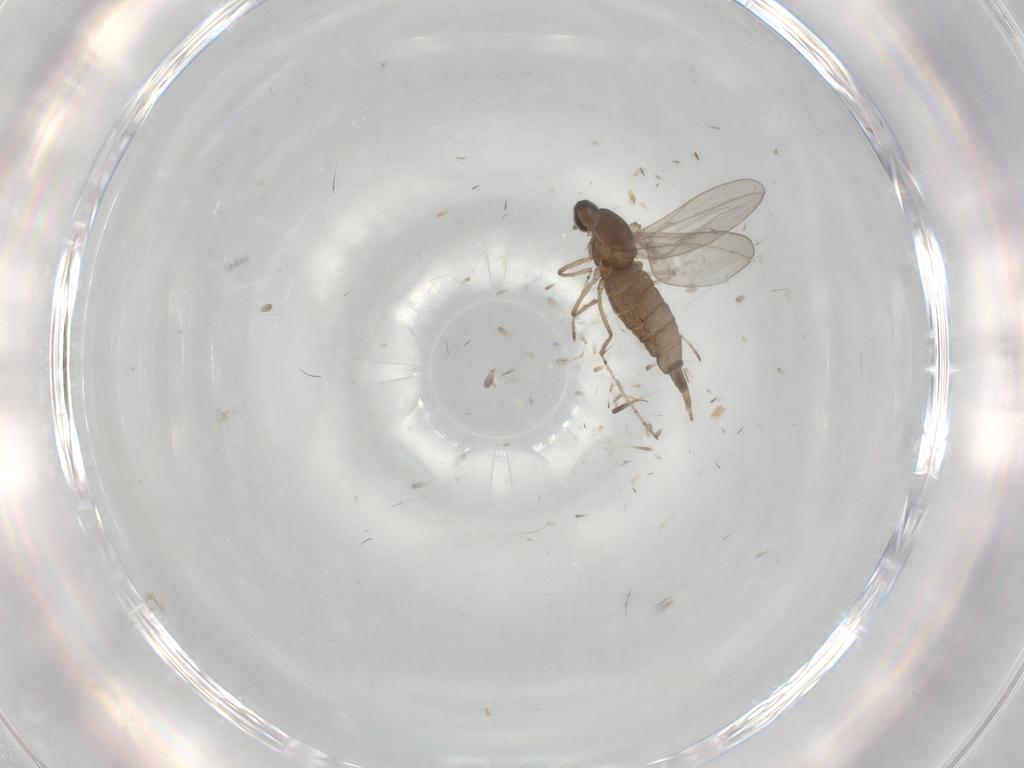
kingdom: Animalia
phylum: Arthropoda
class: Insecta
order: Diptera
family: Cecidomyiidae
